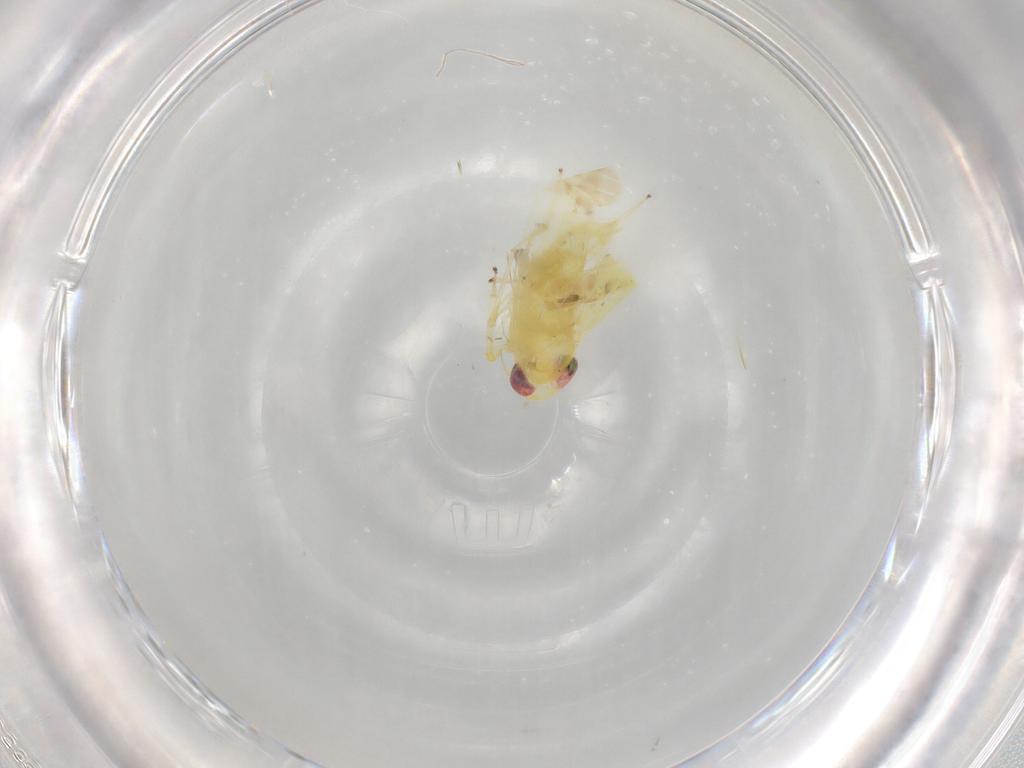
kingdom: Animalia
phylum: Arthropoda
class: Insecta
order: Hemiptera
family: Cicadellidae
